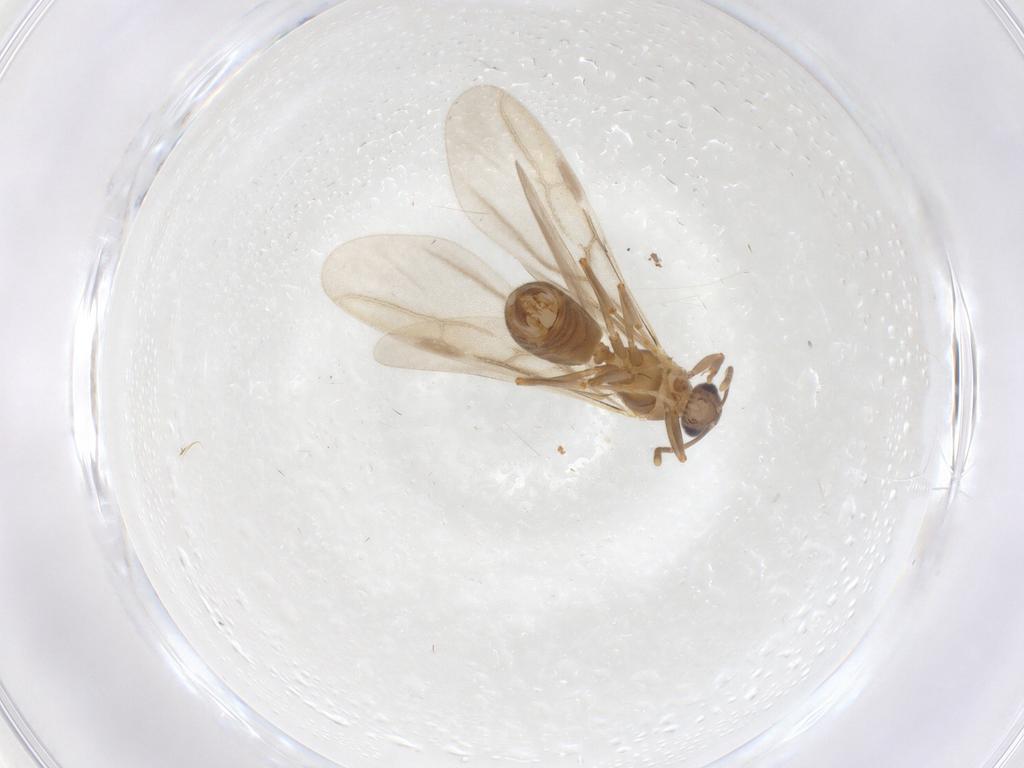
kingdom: Animalia
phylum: Arthropoda
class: Insecta
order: Hymenoptera
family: Formicidae
